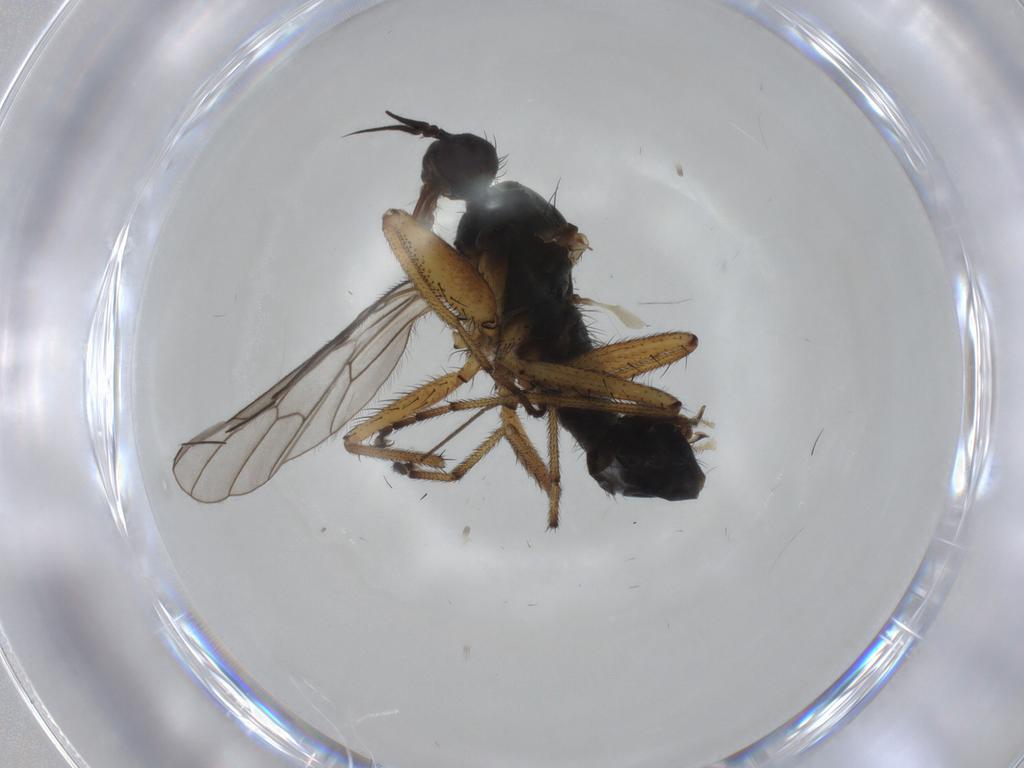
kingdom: Animalia
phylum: Arthropoda
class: Insecta
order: Diptera
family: Chironomidae
